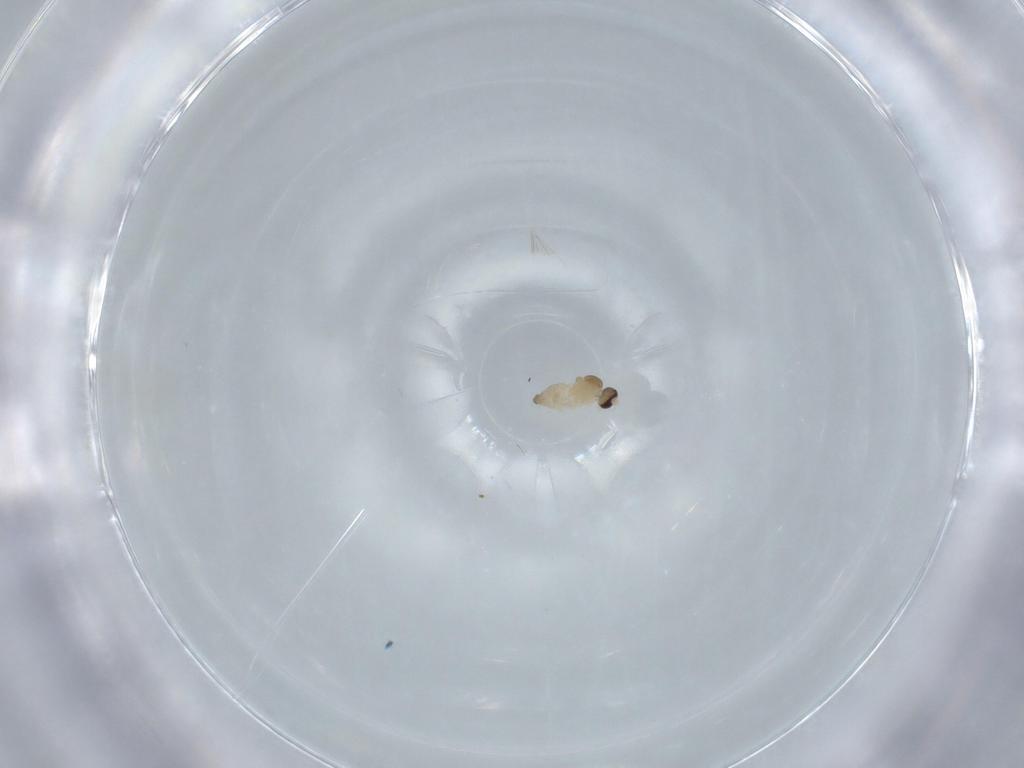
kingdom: Animalia
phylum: Arthropoda
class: Insecta
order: Diptera
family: Cecidomyiidae
